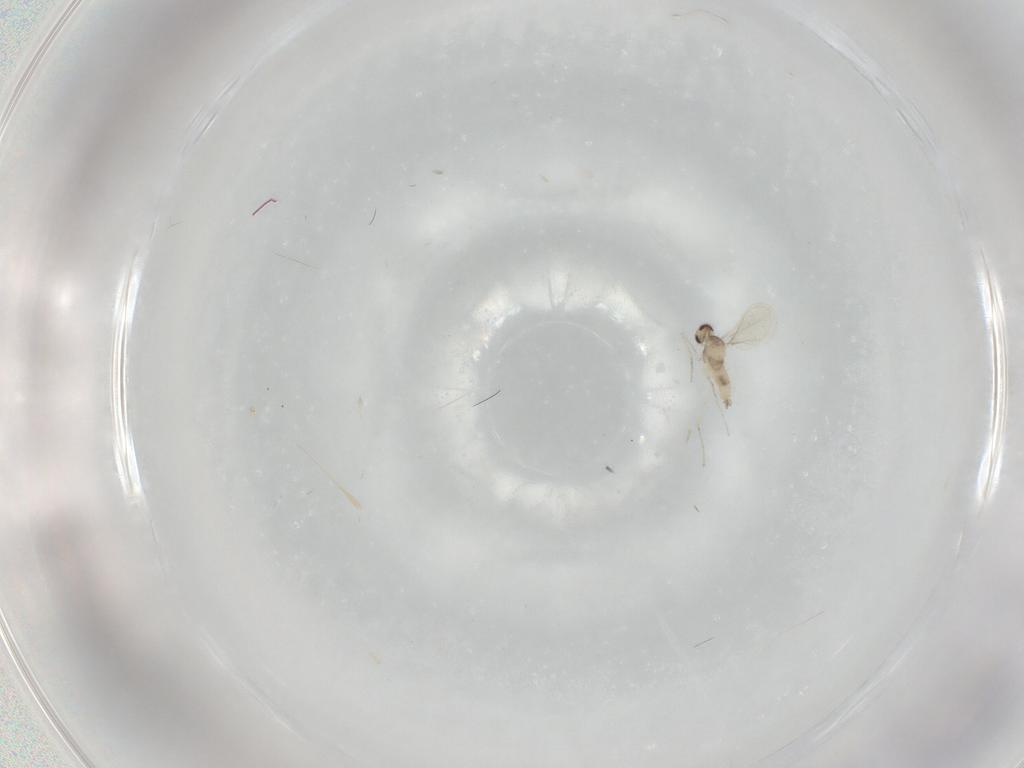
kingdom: Animalia
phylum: Arthropoda
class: Insecta
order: Diptera
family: Cecidomyiidae
